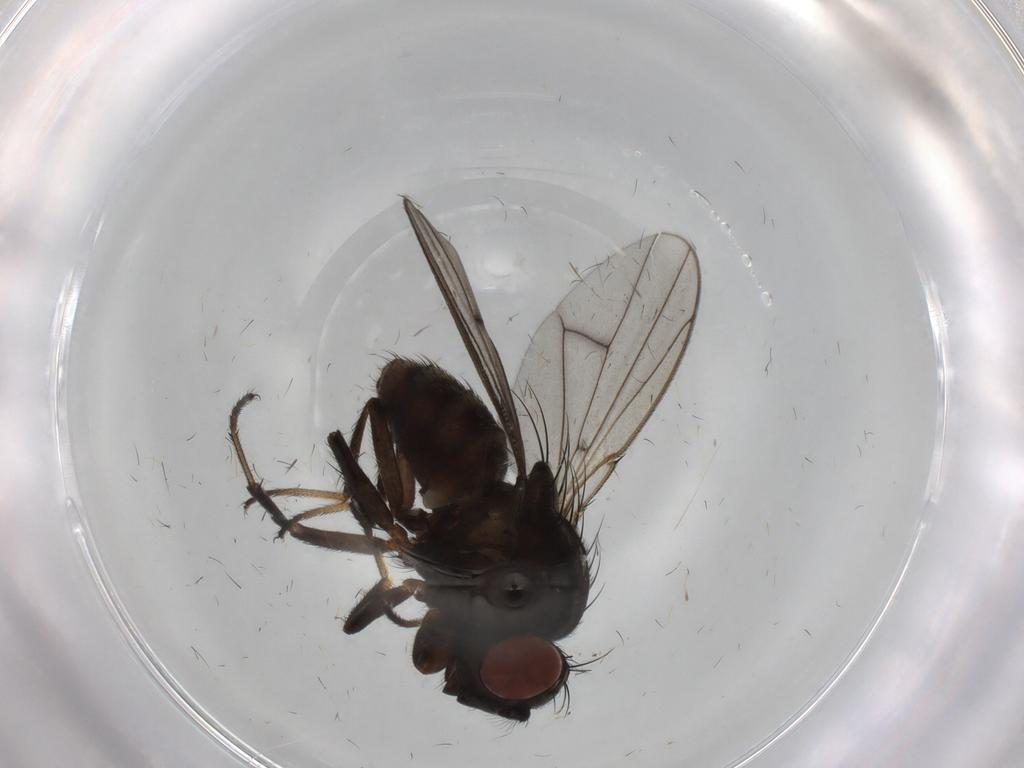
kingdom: Animalia
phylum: Arthropoda
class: Insecta
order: Diptera
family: Ephydridae
